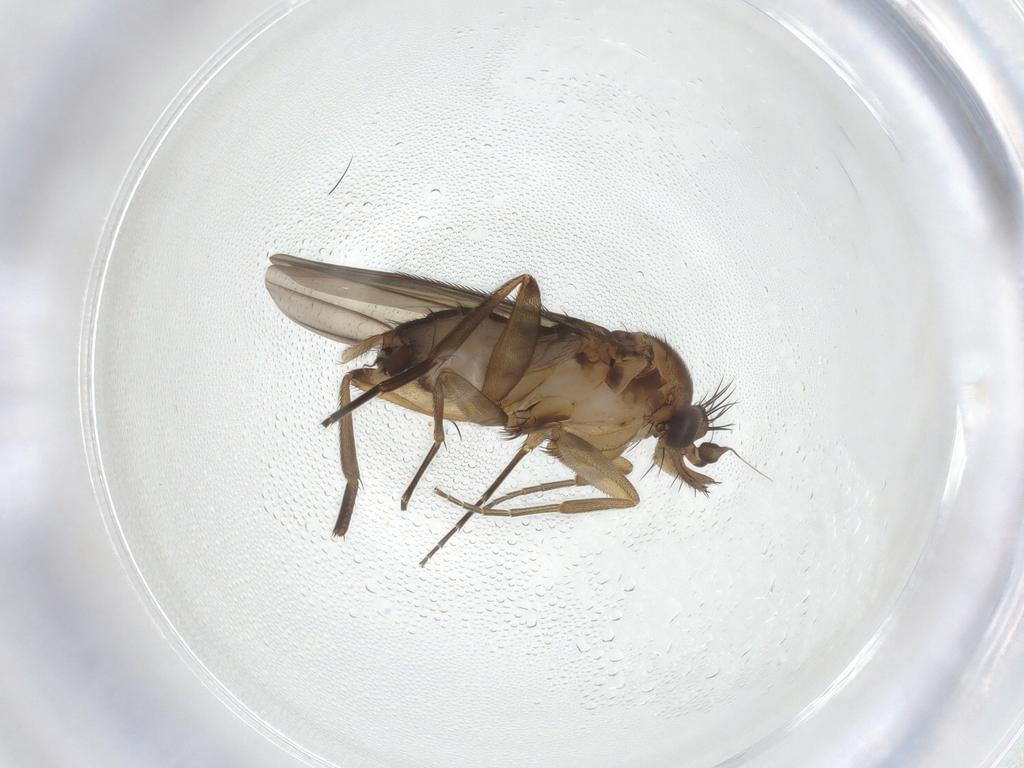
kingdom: Animalia
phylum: Arthropoda
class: Insecta
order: Diptera
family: Phoridae
